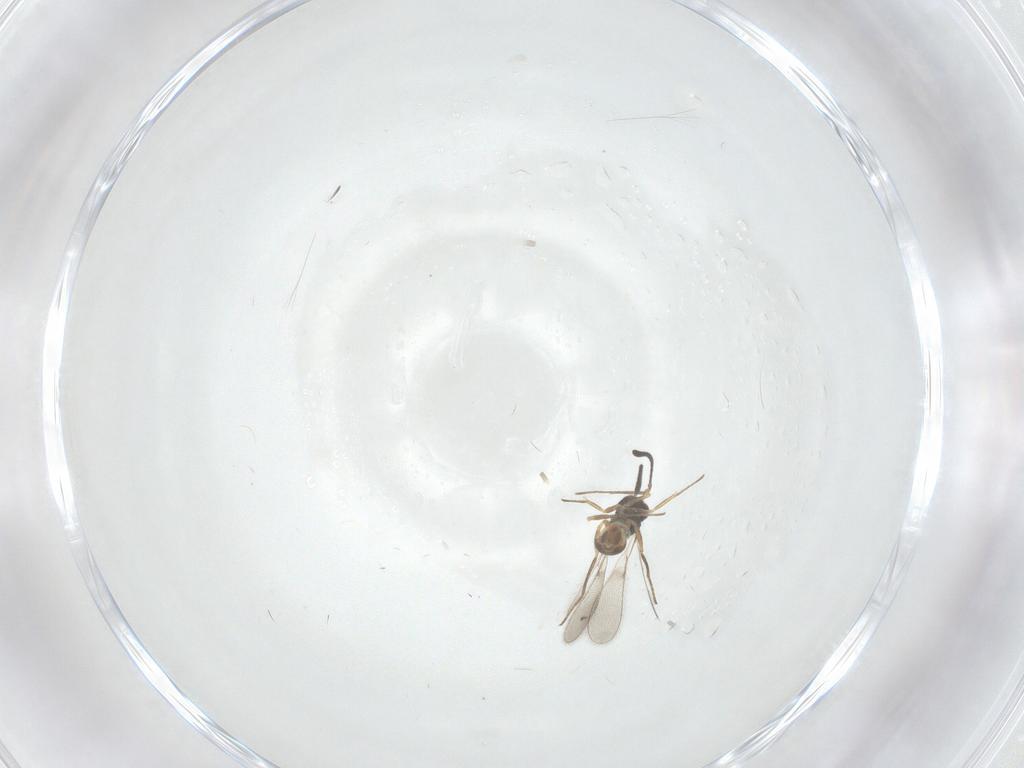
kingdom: Animalia
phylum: Arthropoda
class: Insecta
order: Hymenoptera
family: Mymaridae
